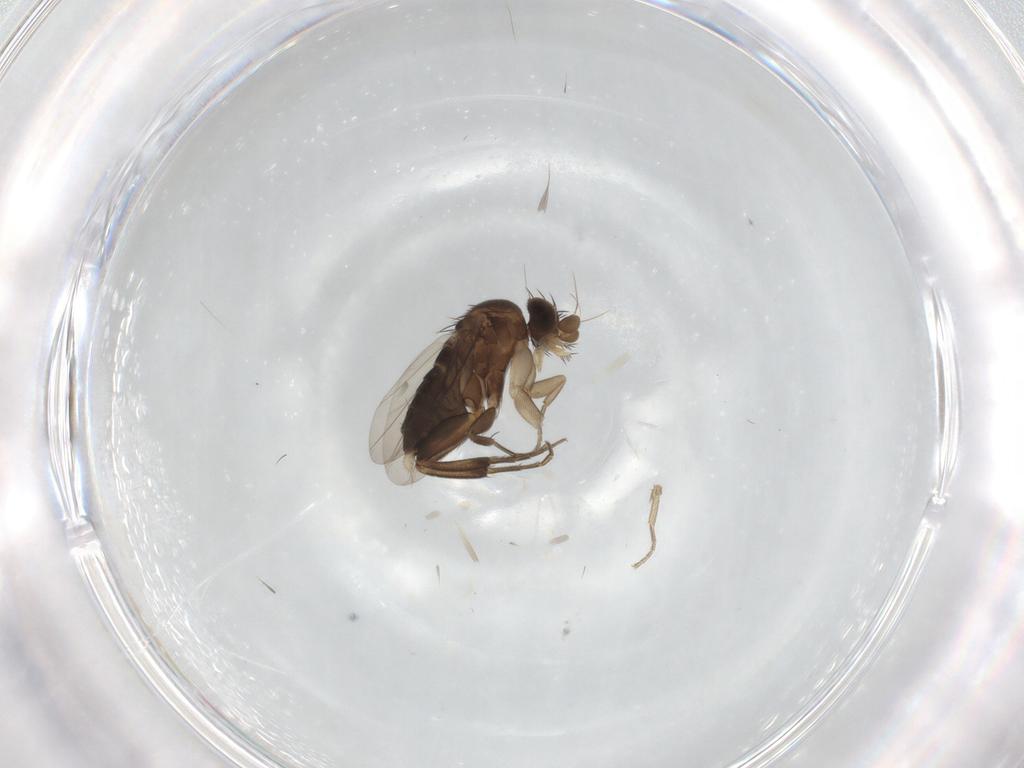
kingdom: Animalia
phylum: Arthropoda
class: Insecta
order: Diptera
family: Phoridae
